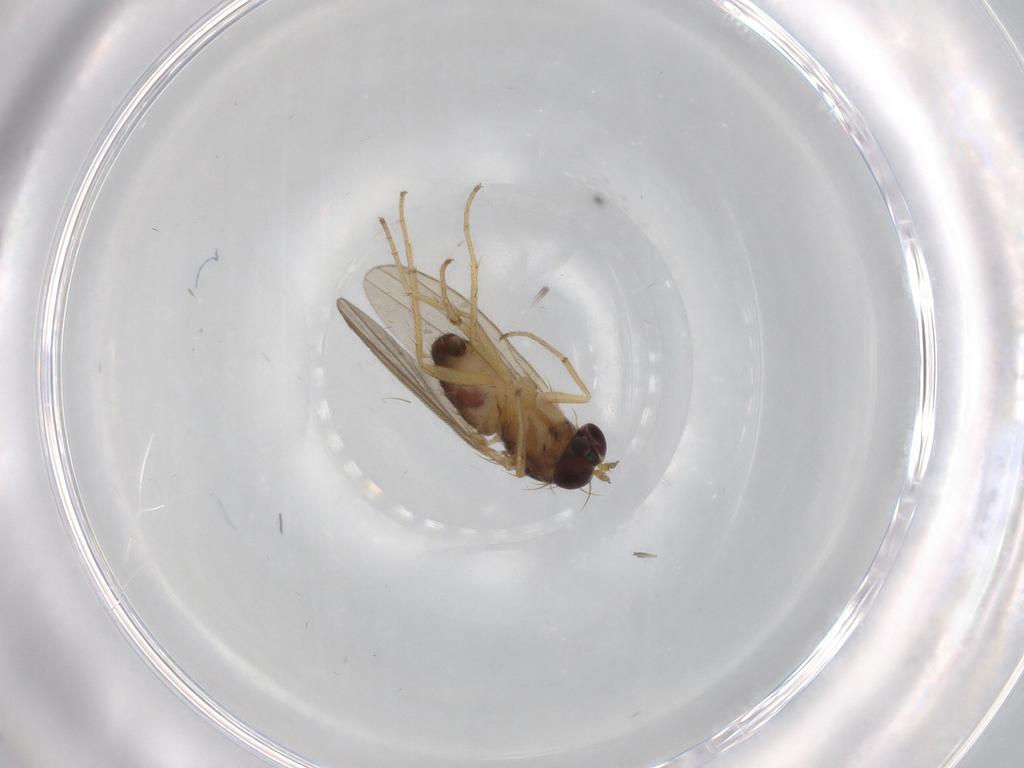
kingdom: Animalia
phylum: Arthropoda
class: Insecta
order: Diptera
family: Dolichopodidae
